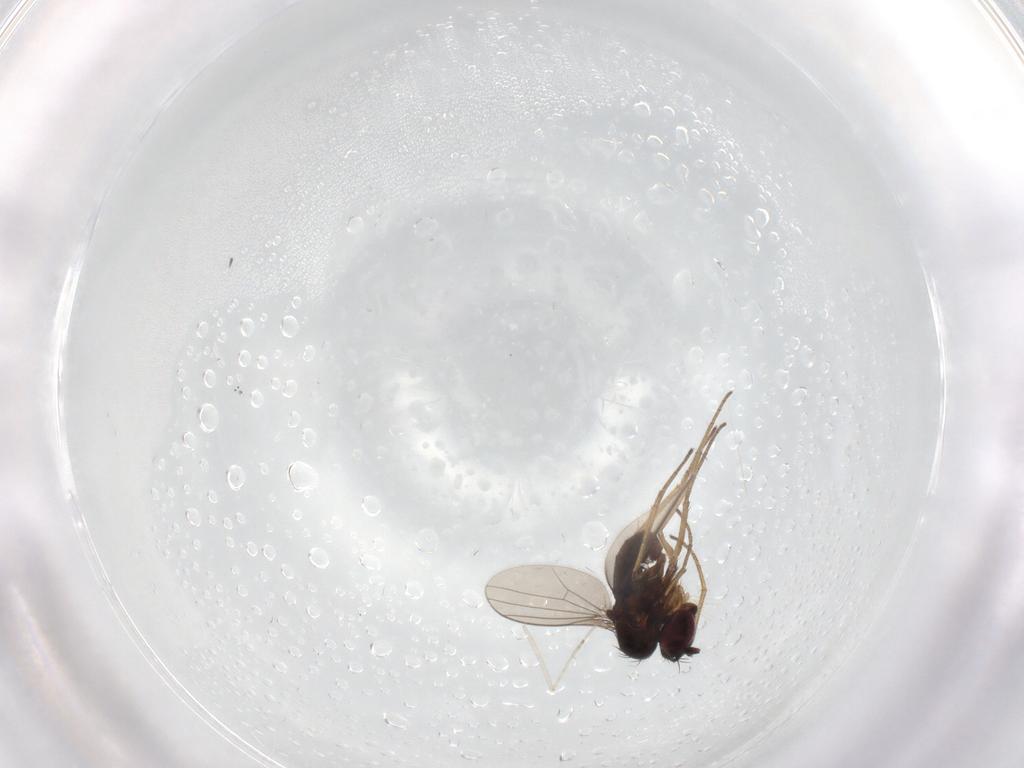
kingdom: Animalia
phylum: Arthropoda
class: Insecta
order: Diptera
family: Dolichopodidae
